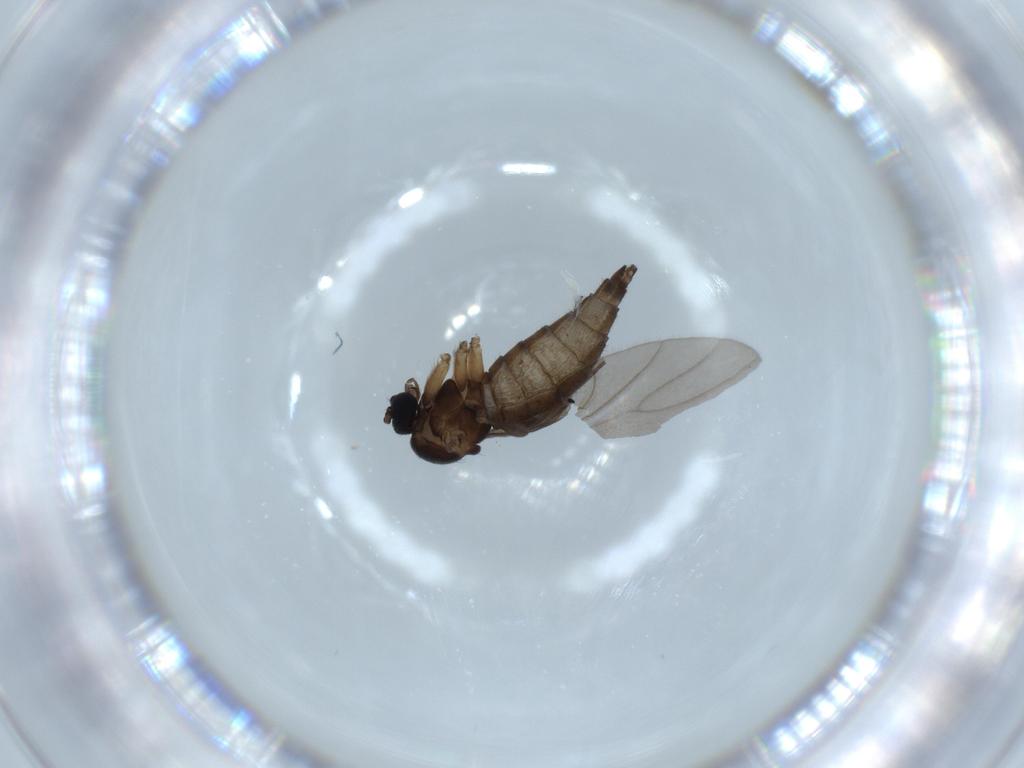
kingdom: Animalia
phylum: Arthropoda
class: Insecta
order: Diptera
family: Sciaridae
